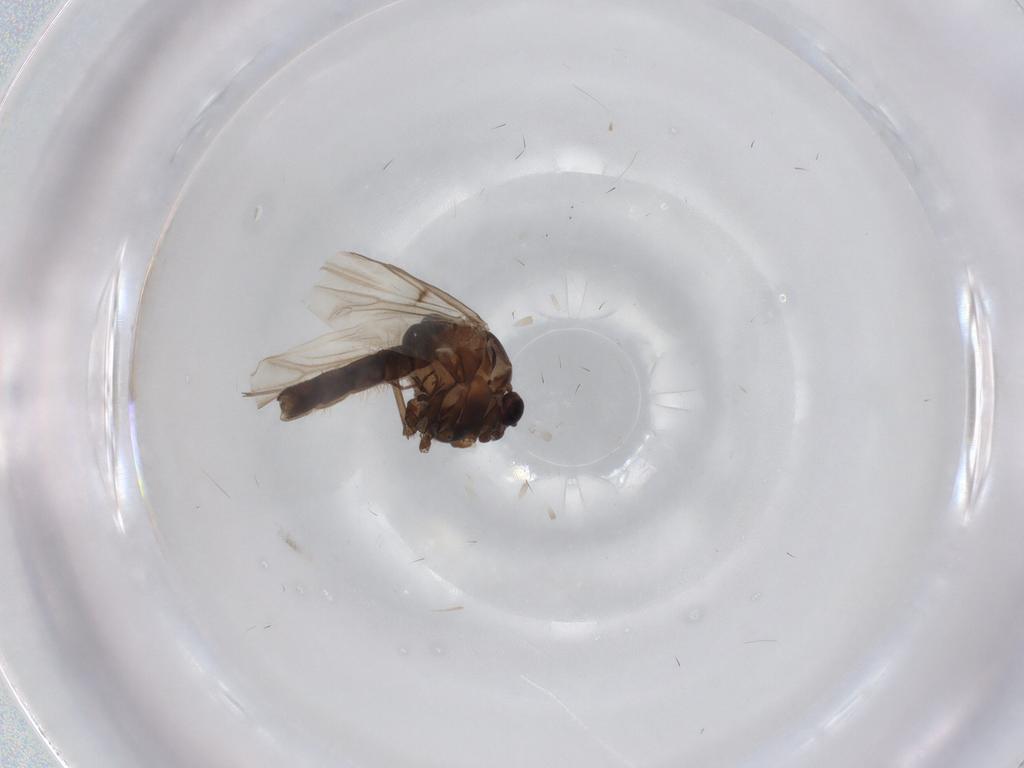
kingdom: Animalia
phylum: Arthropoda
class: Insecta
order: Diptera
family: Chironomidae
